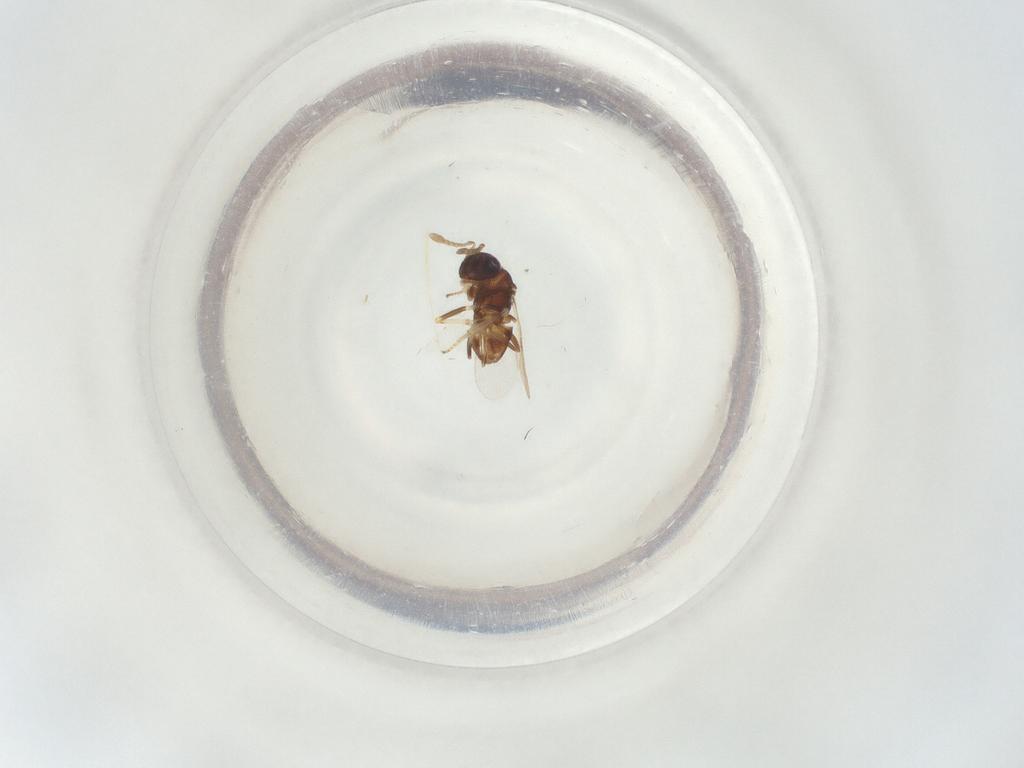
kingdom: Animalia
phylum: Arthropoda
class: Insecta
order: Hymenoptera
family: Encyrtidae
